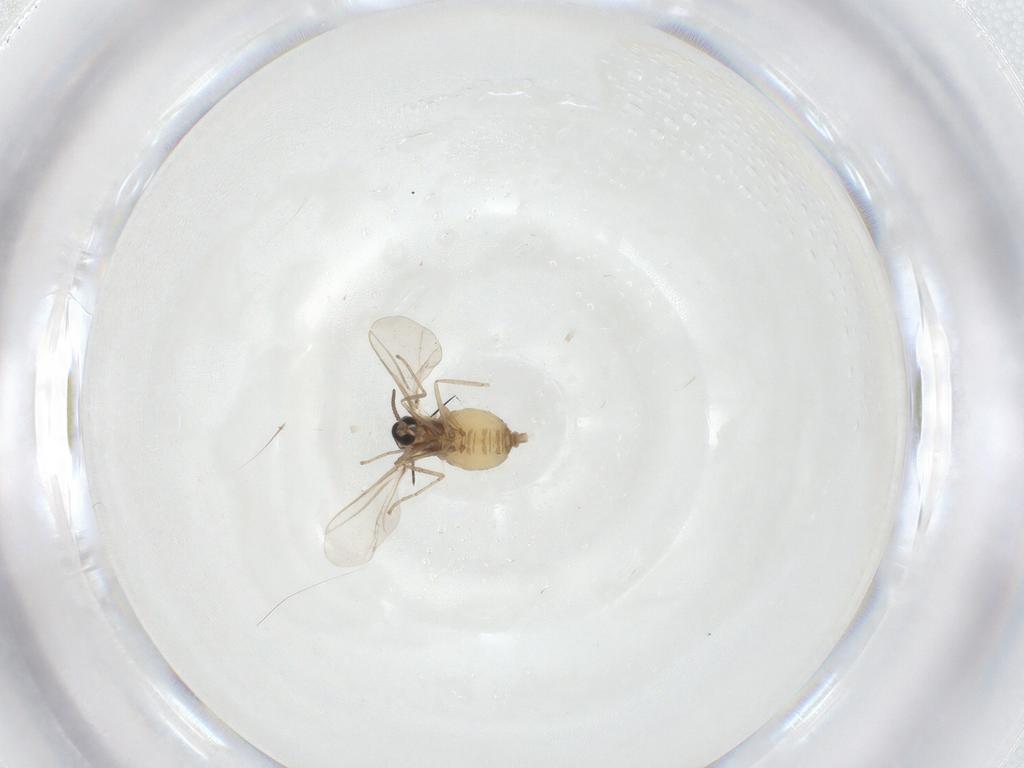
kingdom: Animalia
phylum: Arthropoda
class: Insecta
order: Diptera
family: Cecidomyiidae
